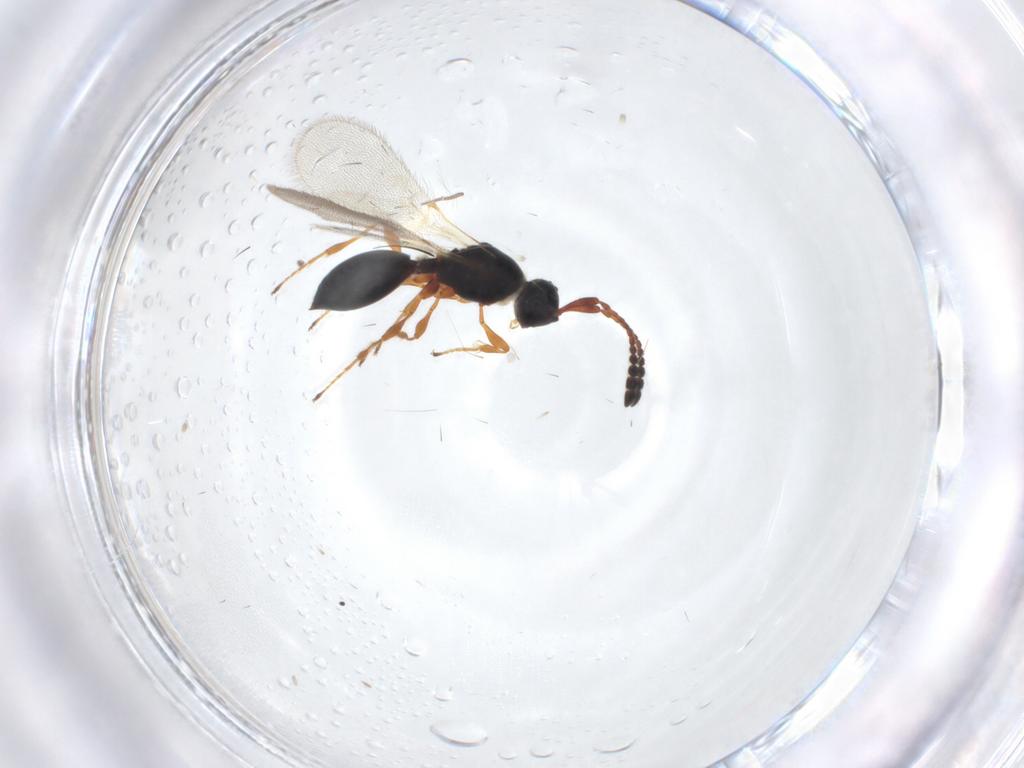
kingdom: Animalia
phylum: Arthropoda
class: Insecta
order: Hymenoptera
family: Diapriidae
